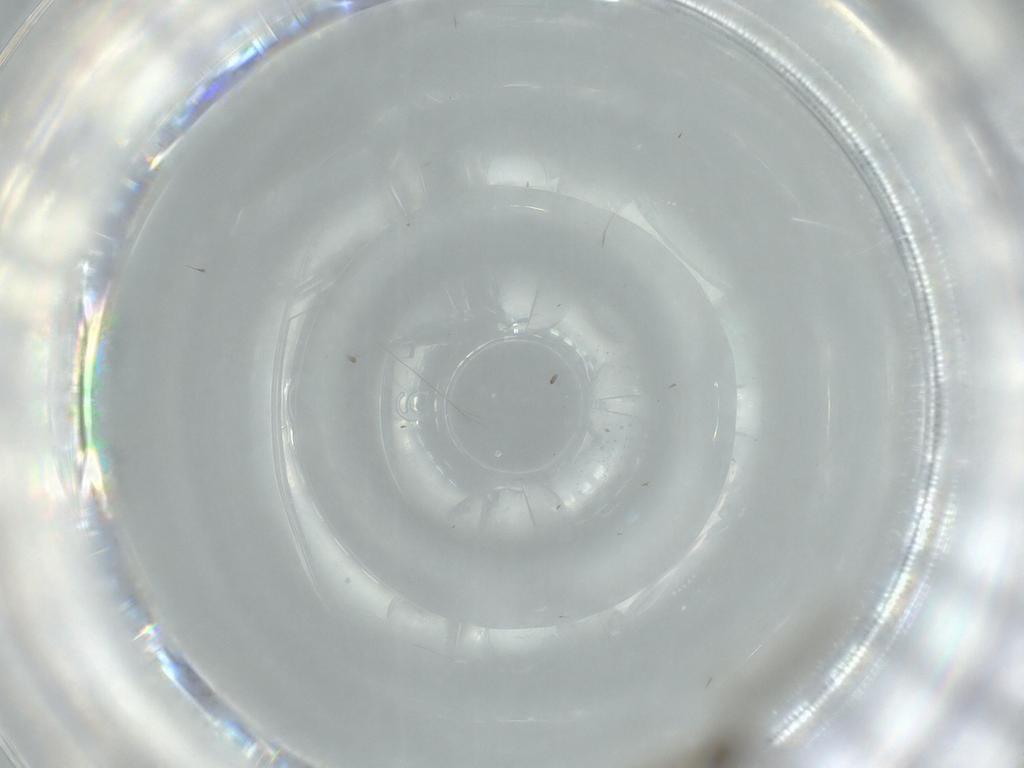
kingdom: Animalia
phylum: Arthropoda
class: Insecta
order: Diptera
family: Cecidomyiidae
